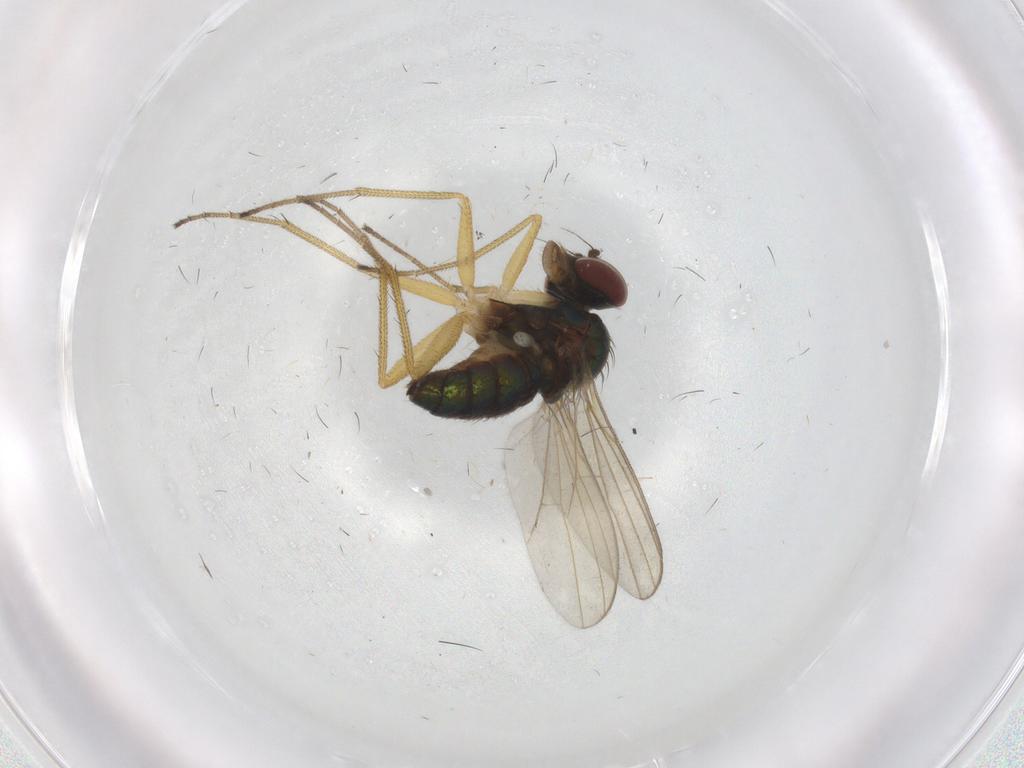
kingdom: Animalia
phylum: Arthropoda
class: Insecta
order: Diptera
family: Dolichopodidae
